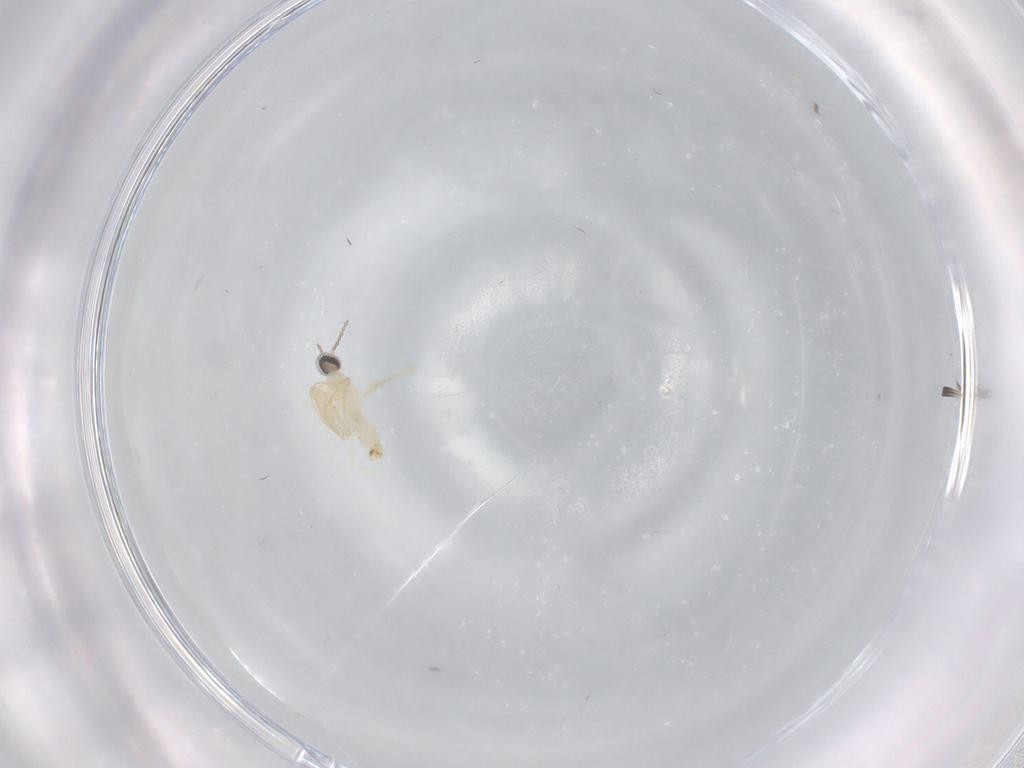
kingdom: Animalia
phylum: Arthropoda
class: Insecta
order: Diptera
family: Cecidomyiidae
